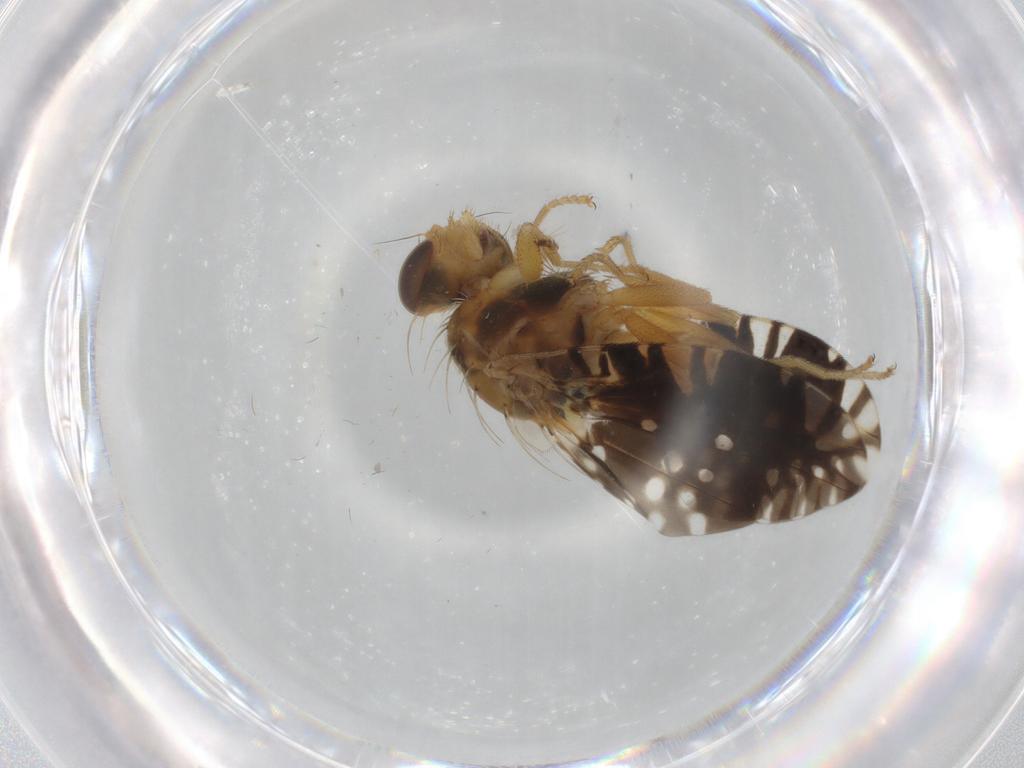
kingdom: Animalia
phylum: Arthropoda
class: Insecta
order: Diptera
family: Tephritidae
